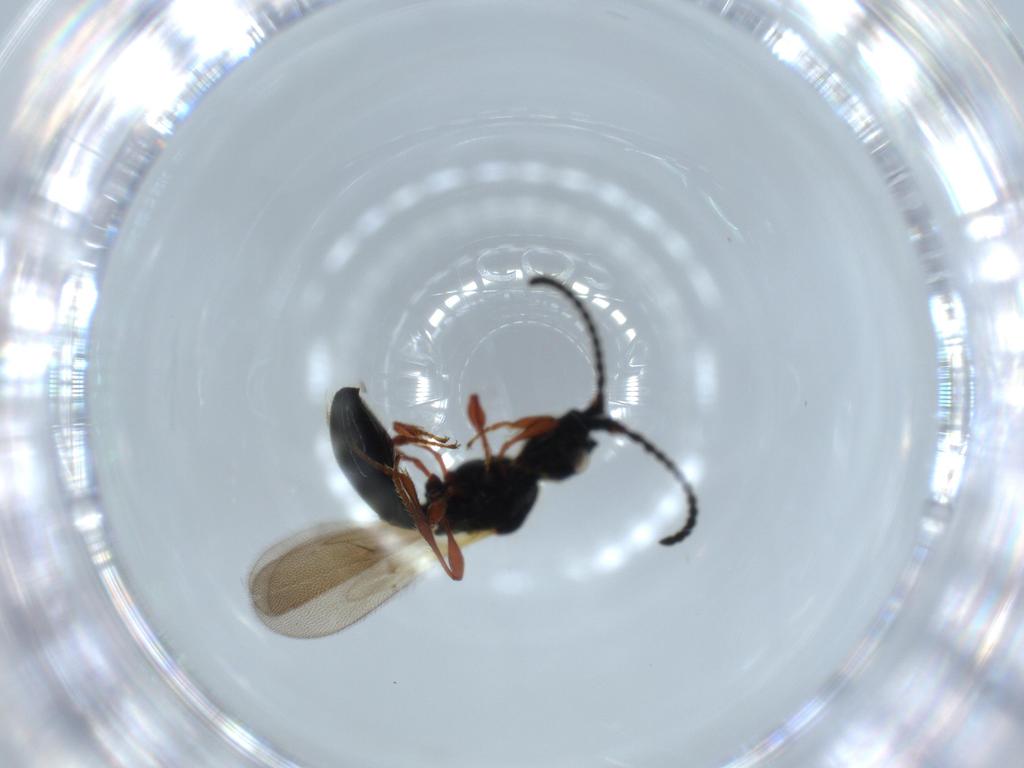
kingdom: Animalia
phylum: Arthropoda
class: Insecta
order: Hymenoptera
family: Diapriidae
